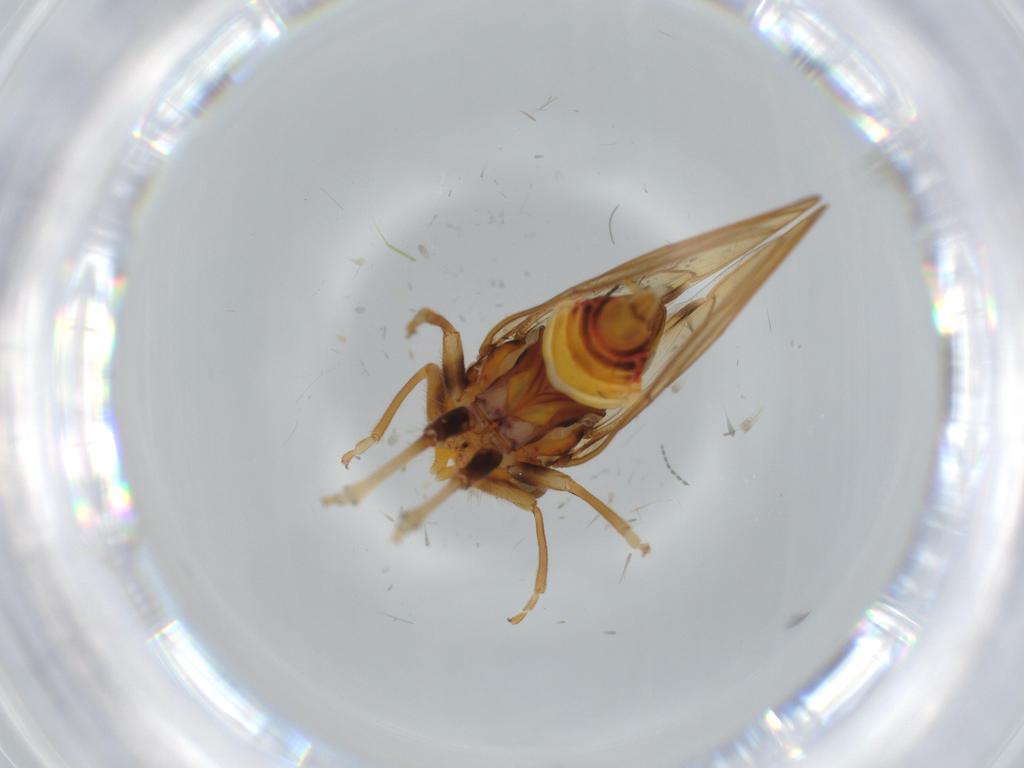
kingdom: Animalia
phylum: Arthropoda
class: Insecta
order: Hemiptera
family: Psyllidae
